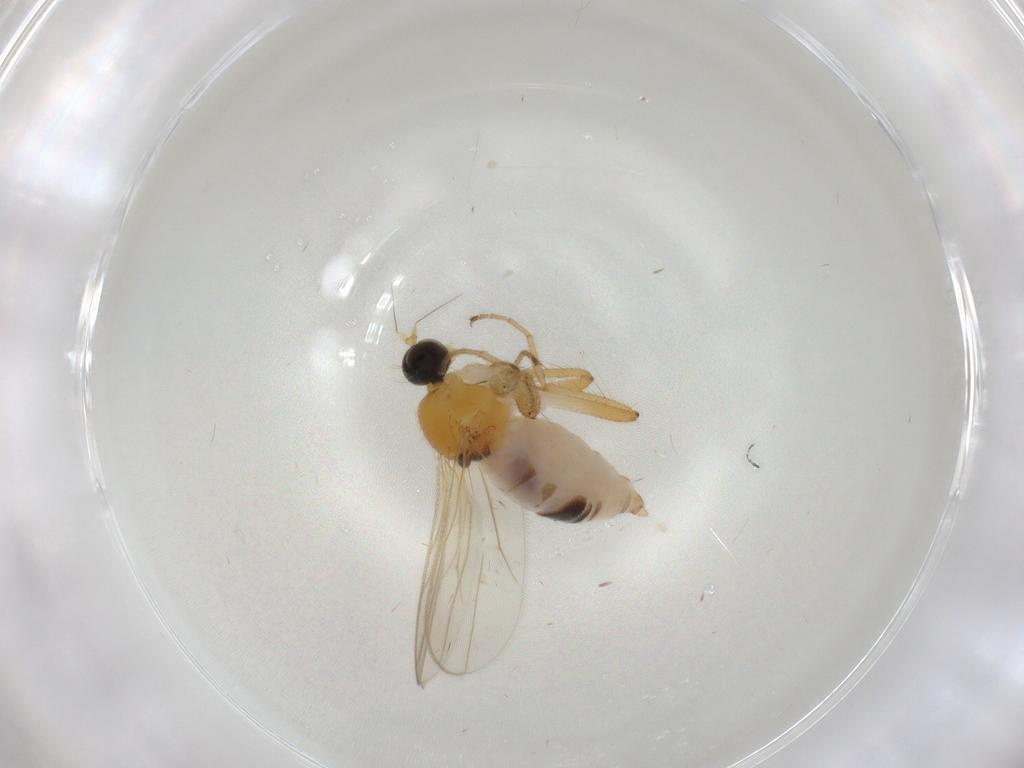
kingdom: Animalia
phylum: Arthropoda
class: Insecta
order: Diptera
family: Hybotidae
